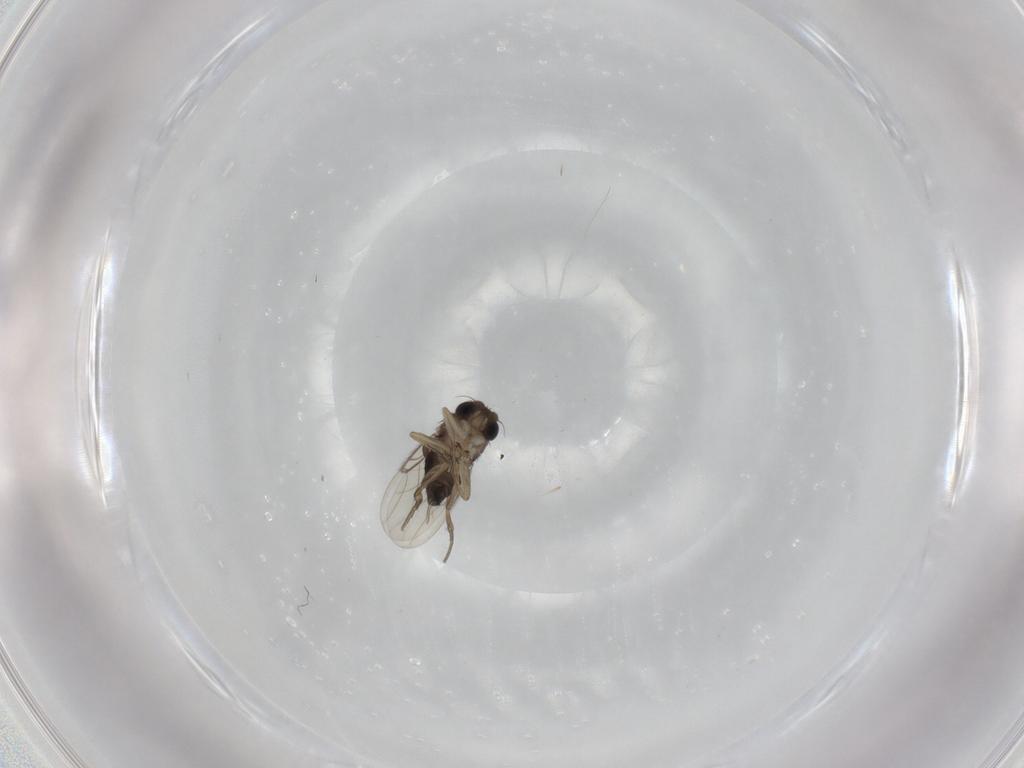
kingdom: Animalia
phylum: Arthropoda
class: Insecta
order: Diptera
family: Phoridae
